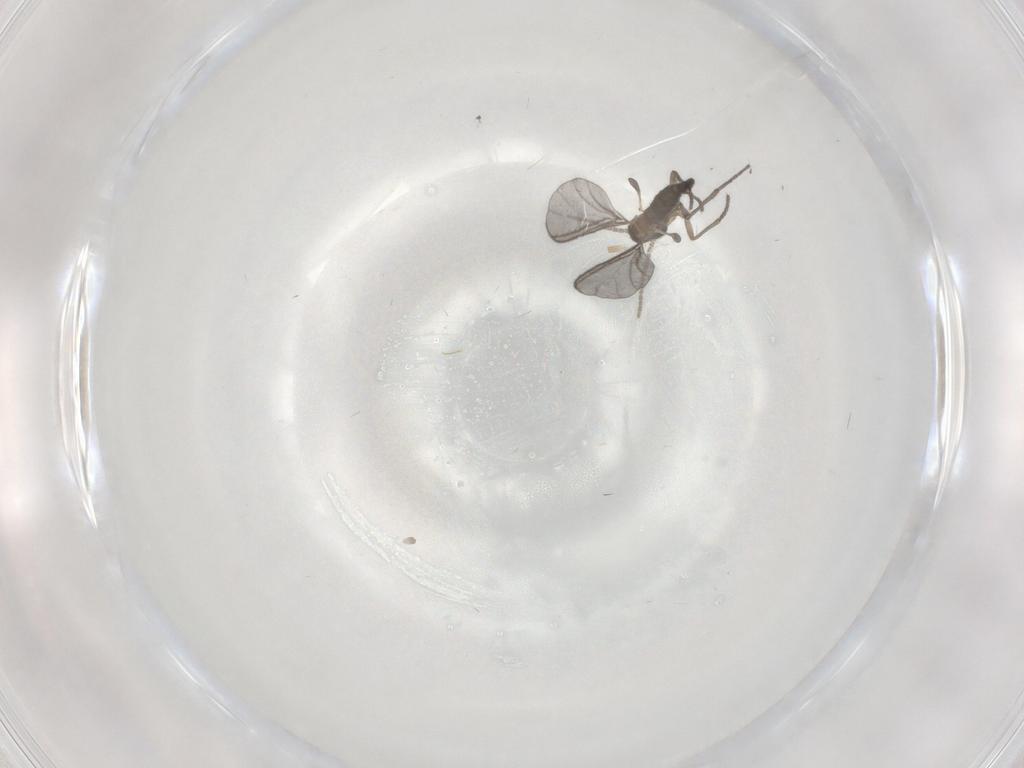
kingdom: Animalia
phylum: Arthropoda
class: Insecta
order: Diptera
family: Sciaridae
